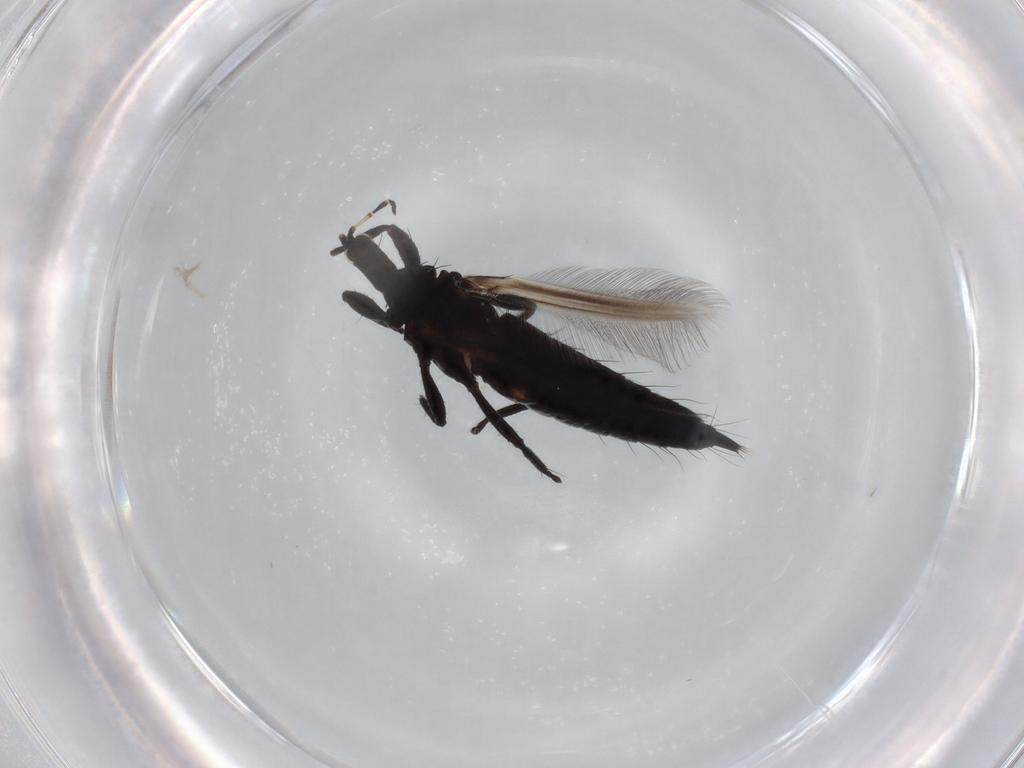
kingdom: Animalia
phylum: Arthropoda
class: Insecta
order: Thysanoptera
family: Phlaeothripidae
